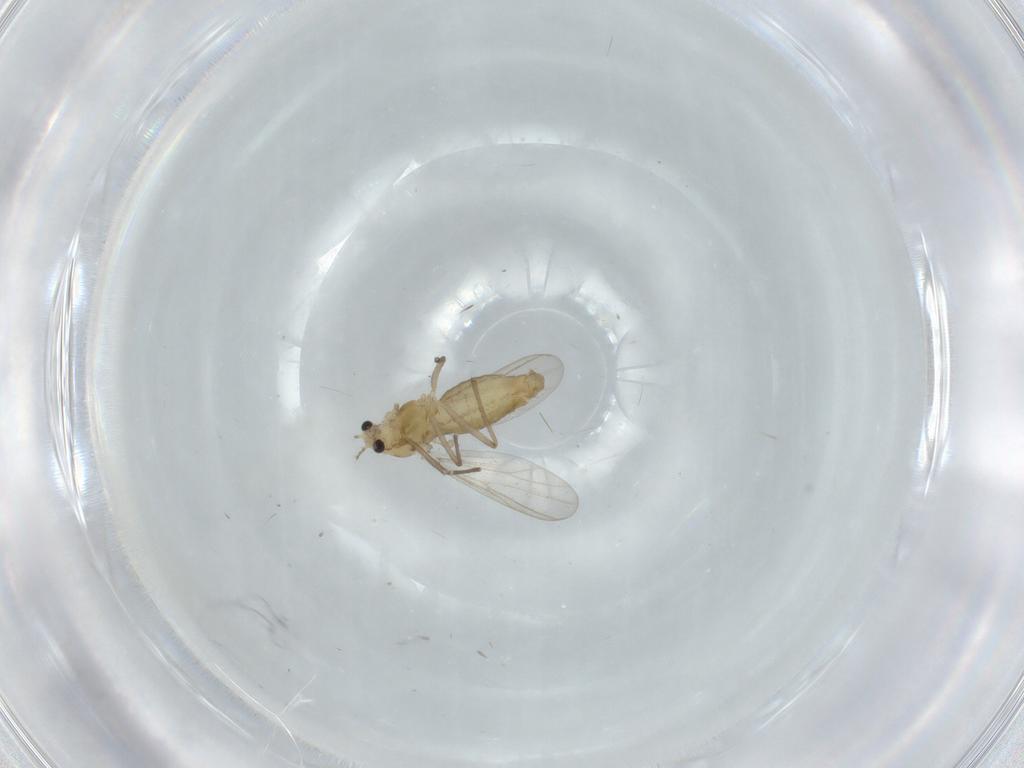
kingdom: Animalia
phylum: Arthropoda
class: Insecta
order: Diptera
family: Chironomidae
